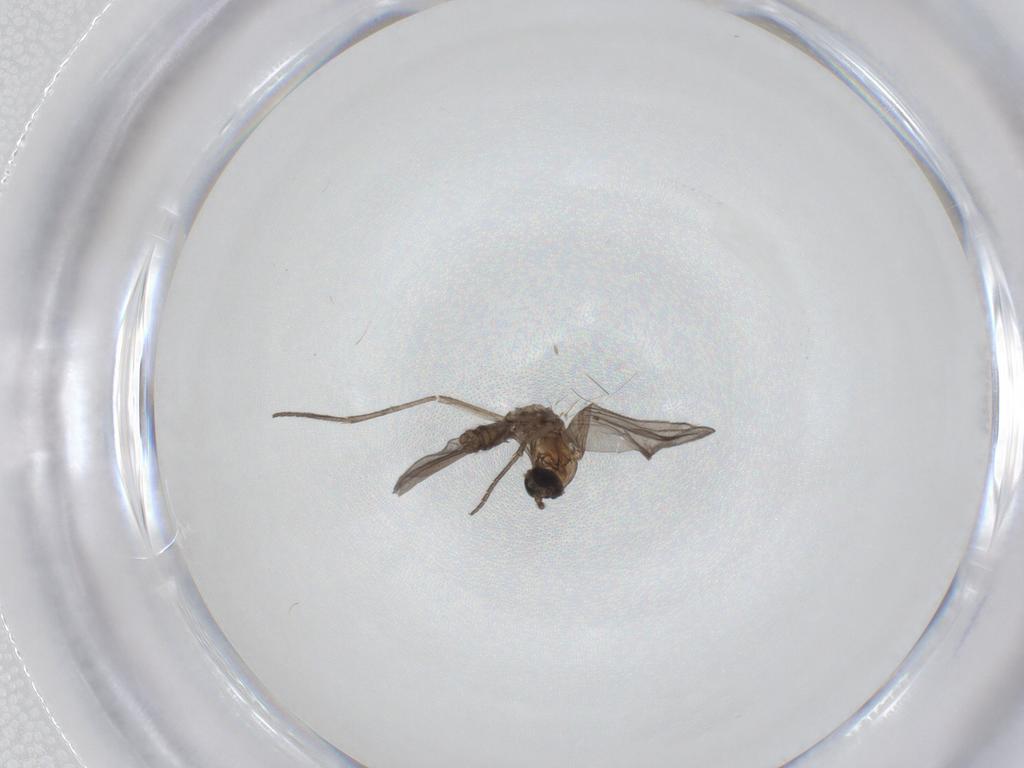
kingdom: Animalia
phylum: Arthropoda
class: Insecta
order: Diptera
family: Sciaridae
